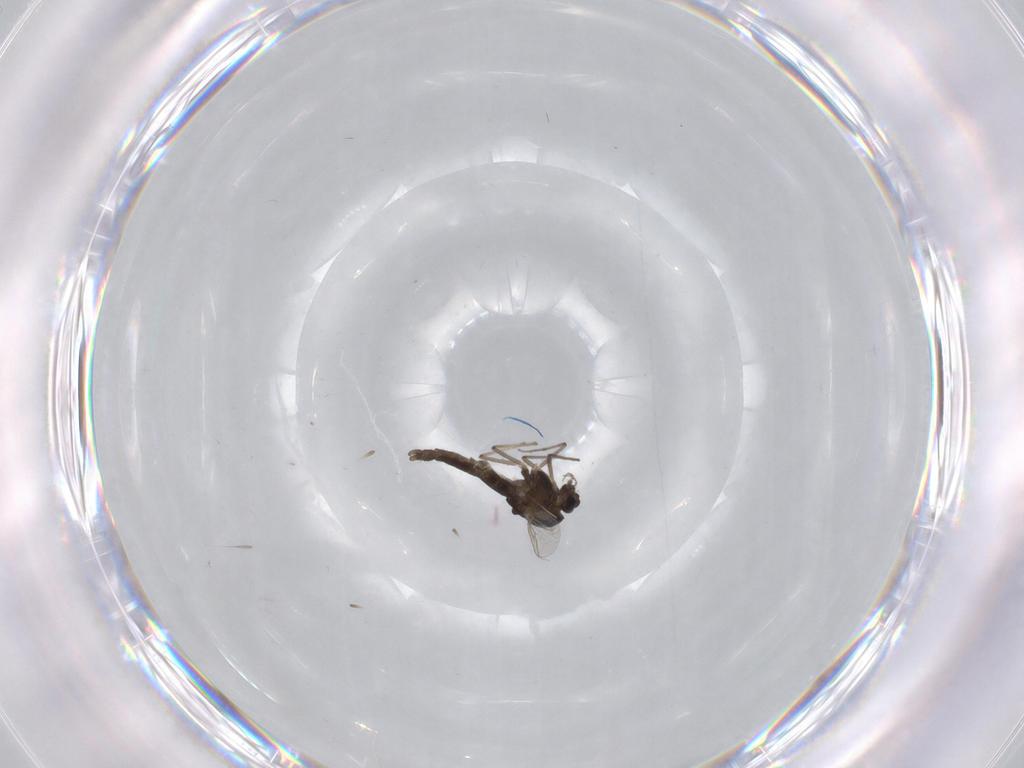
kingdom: Animalia
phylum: Arthropoda
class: Insecta
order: Diptera
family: Chironomidae
